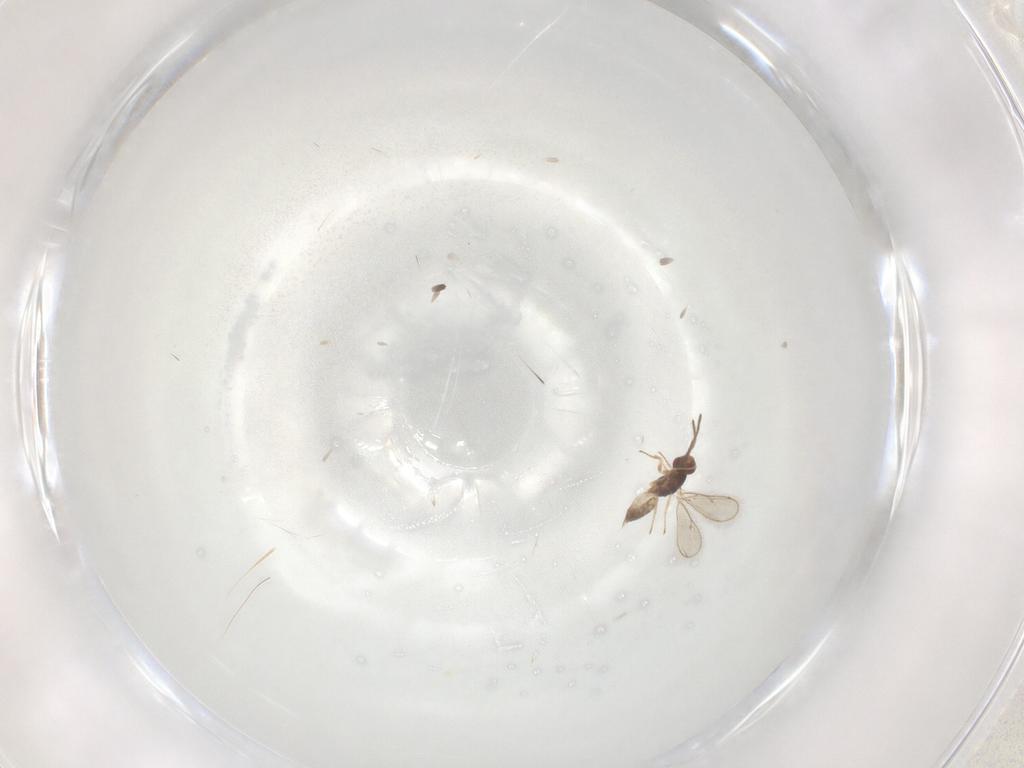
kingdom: Animalia
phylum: Arthropoda
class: Insecta
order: Hymenoptera
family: Eulophidae
